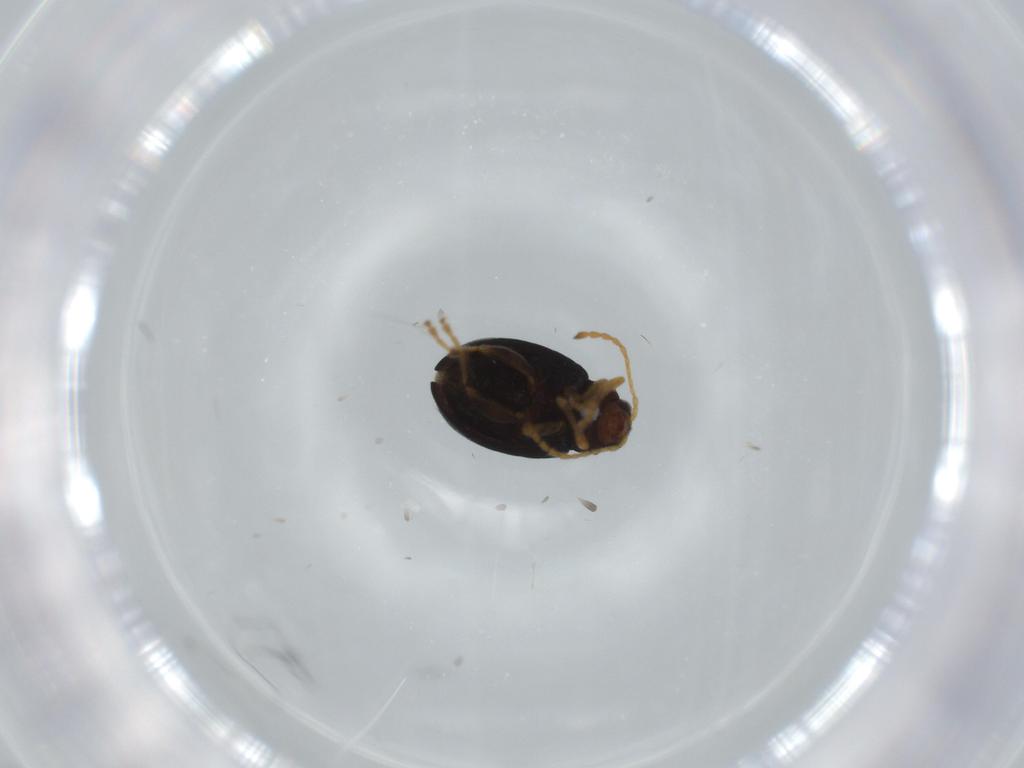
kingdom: Animalia
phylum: Arthropoda
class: Insecta
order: Coleoptera
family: Chrysomelidae
